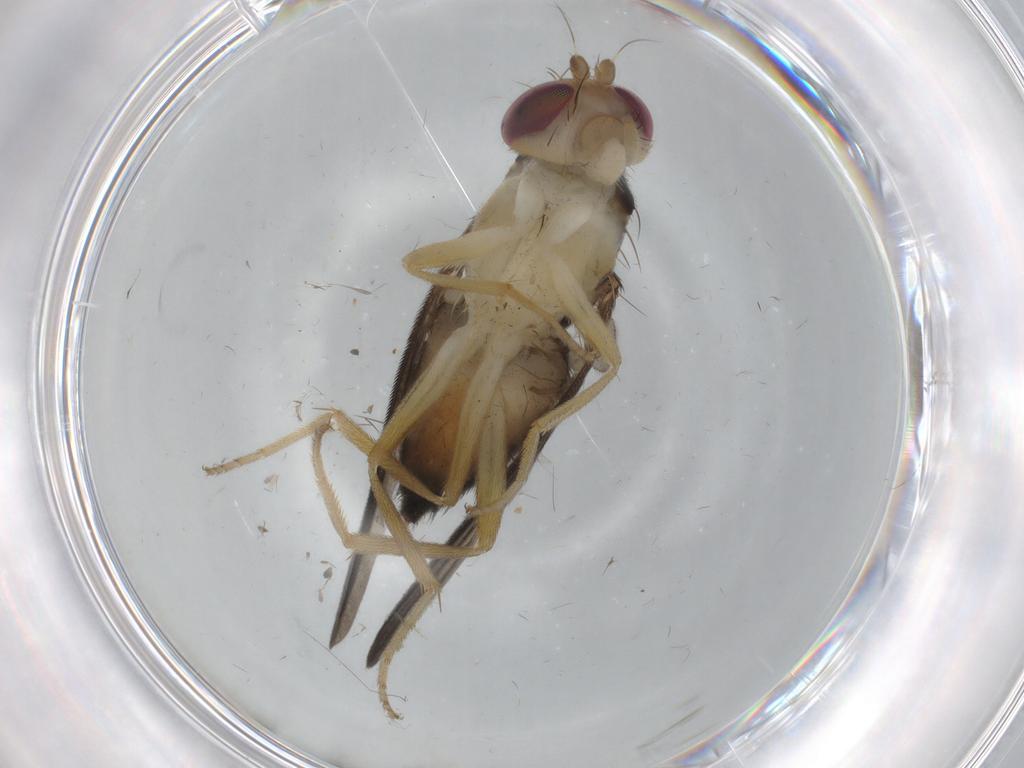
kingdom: Animalia
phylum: Arthropoda
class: Insecta
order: Diptera
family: Phoridae
